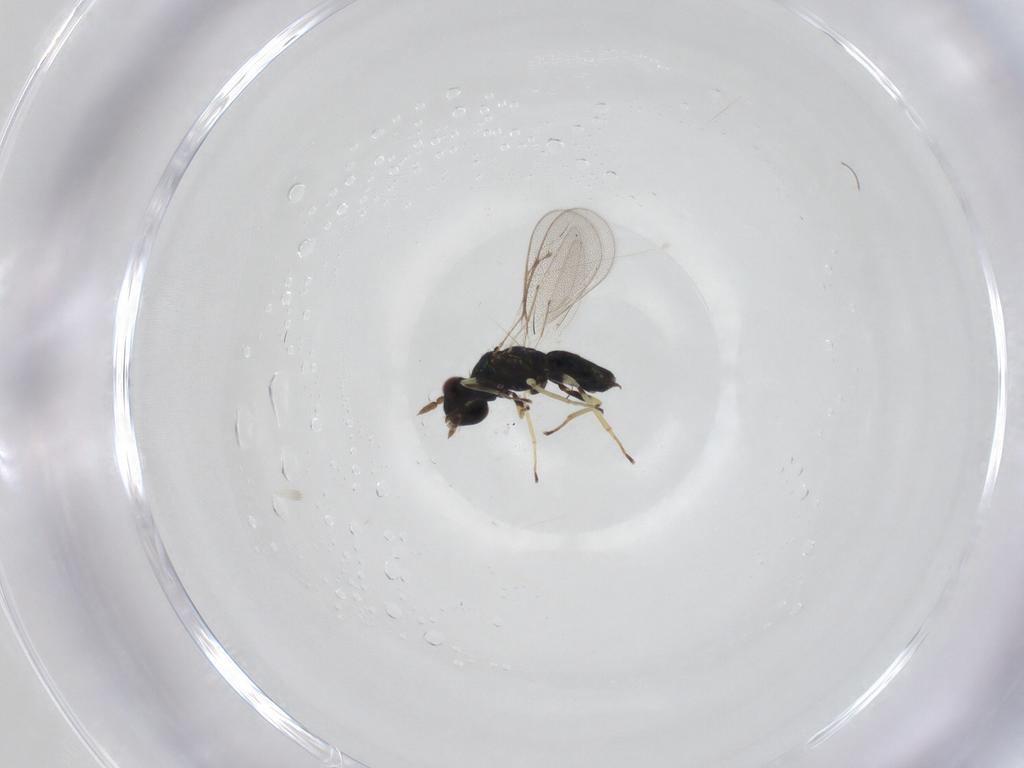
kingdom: Animalia
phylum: Arthropoda
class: Insecta
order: Hymenoptera
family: Eulophidae
